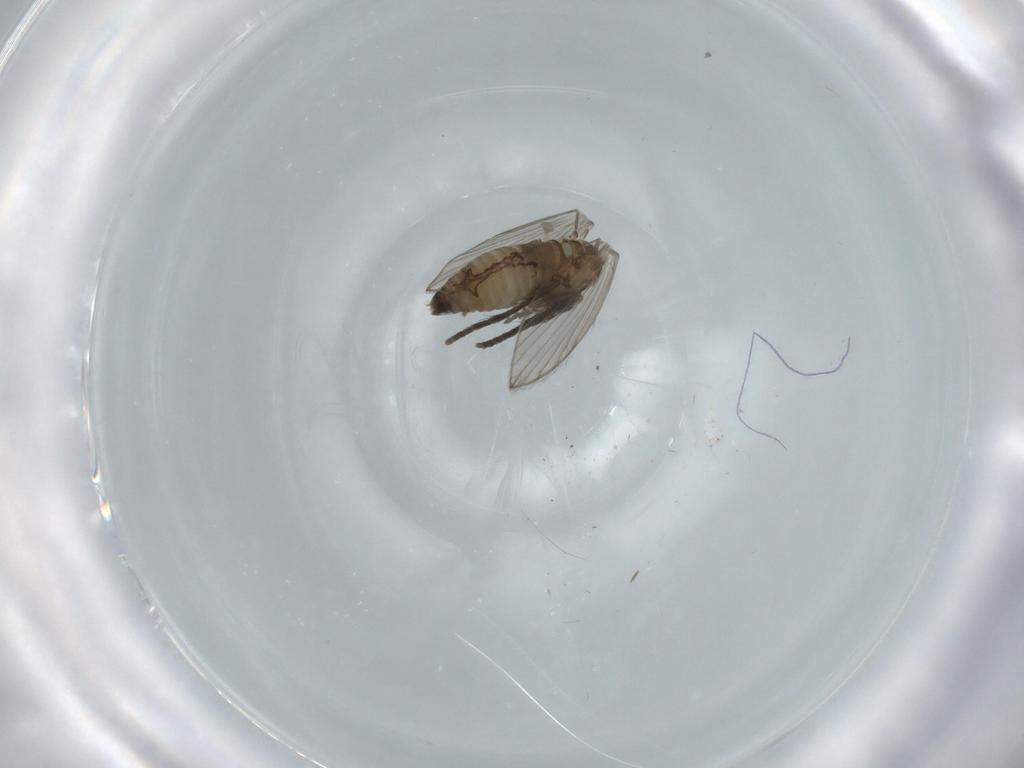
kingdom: Animalia
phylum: Arthropoda
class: Insecta
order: Diptera
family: Psychodidae
